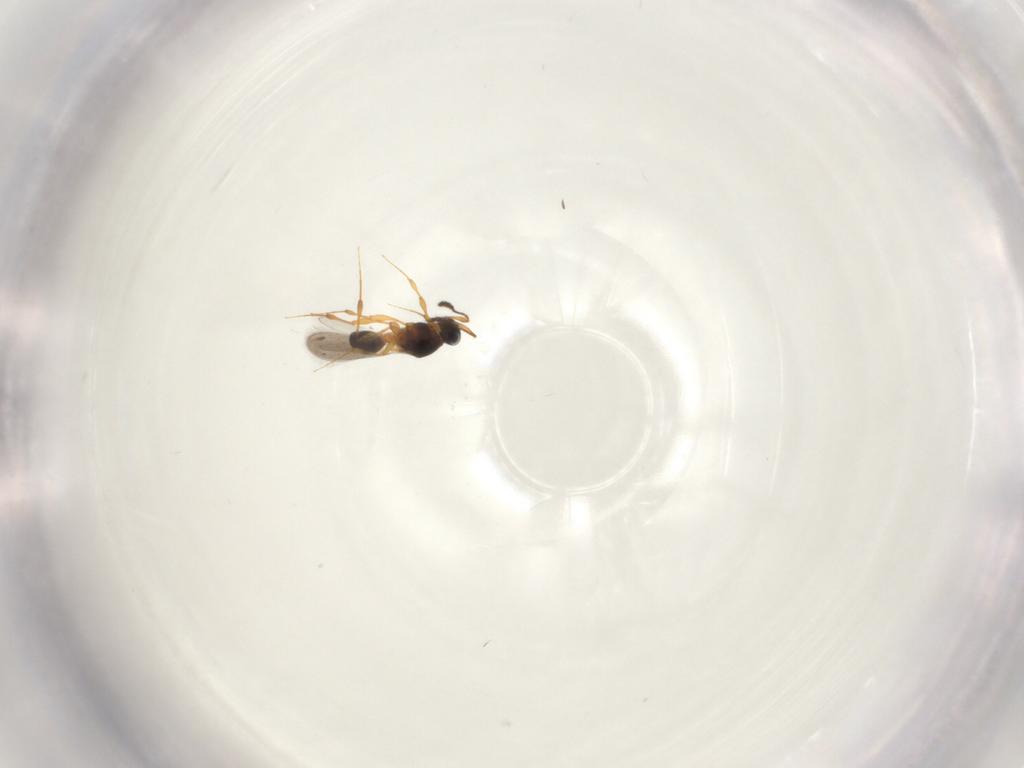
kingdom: Animalia
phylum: Arthropoda
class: Insecta
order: Hymenoptera
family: Platygastridae
